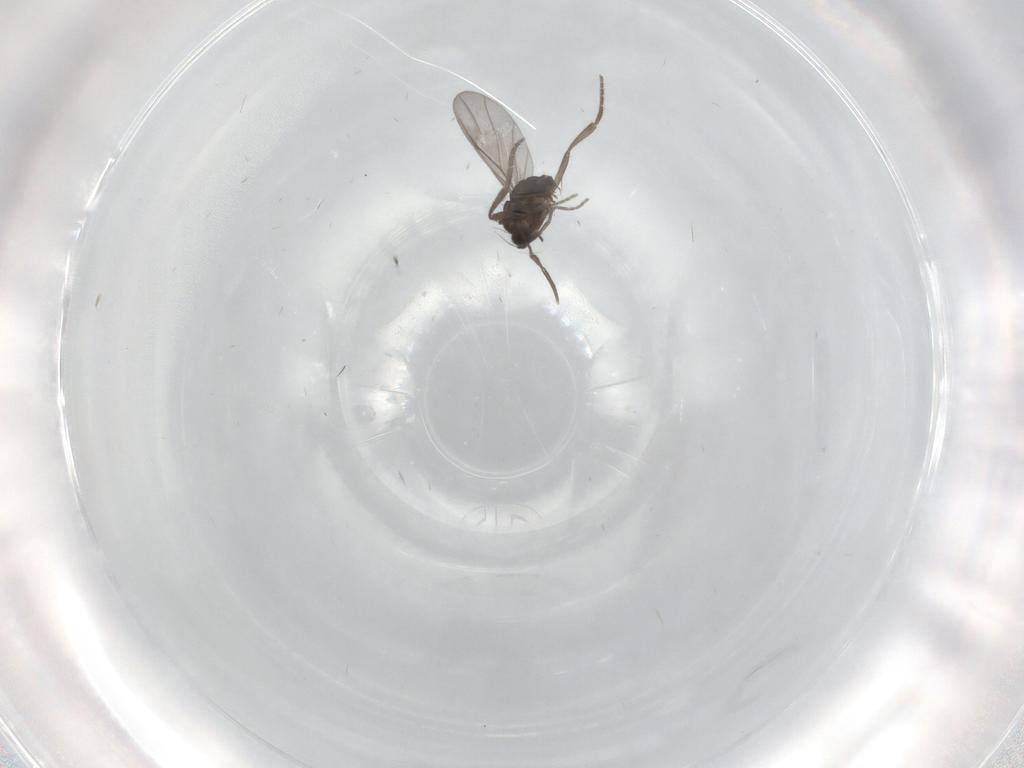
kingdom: Animalia
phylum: Arthropoda
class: Insecta
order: Diptera
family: Phoridae
